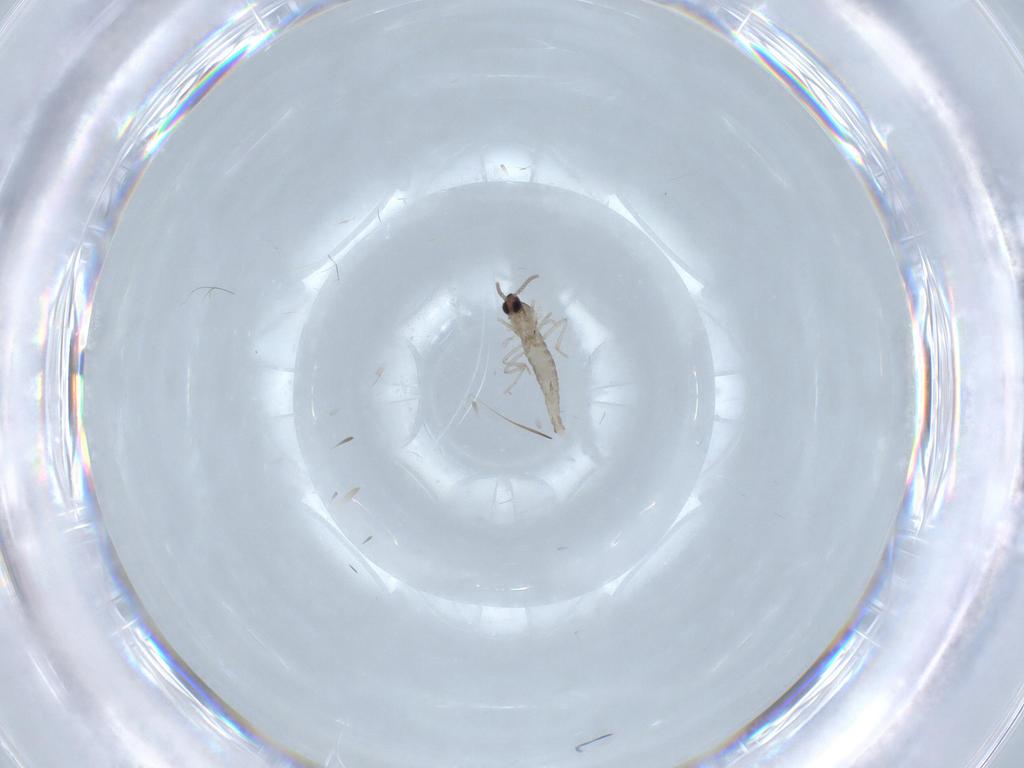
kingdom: Animalia
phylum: Arthropoda
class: Insecta
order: Diptera
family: Cecidomyiidae
